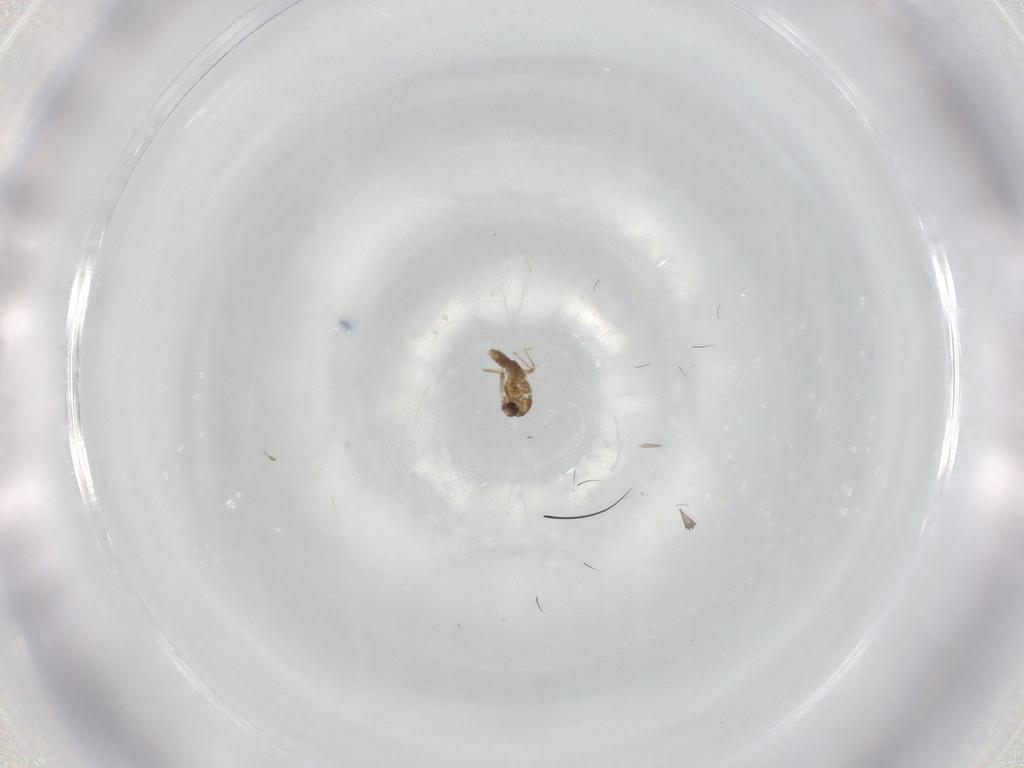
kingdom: Animalia
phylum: Arthropoda
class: Insecta
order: Diptera
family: Chironomidae
